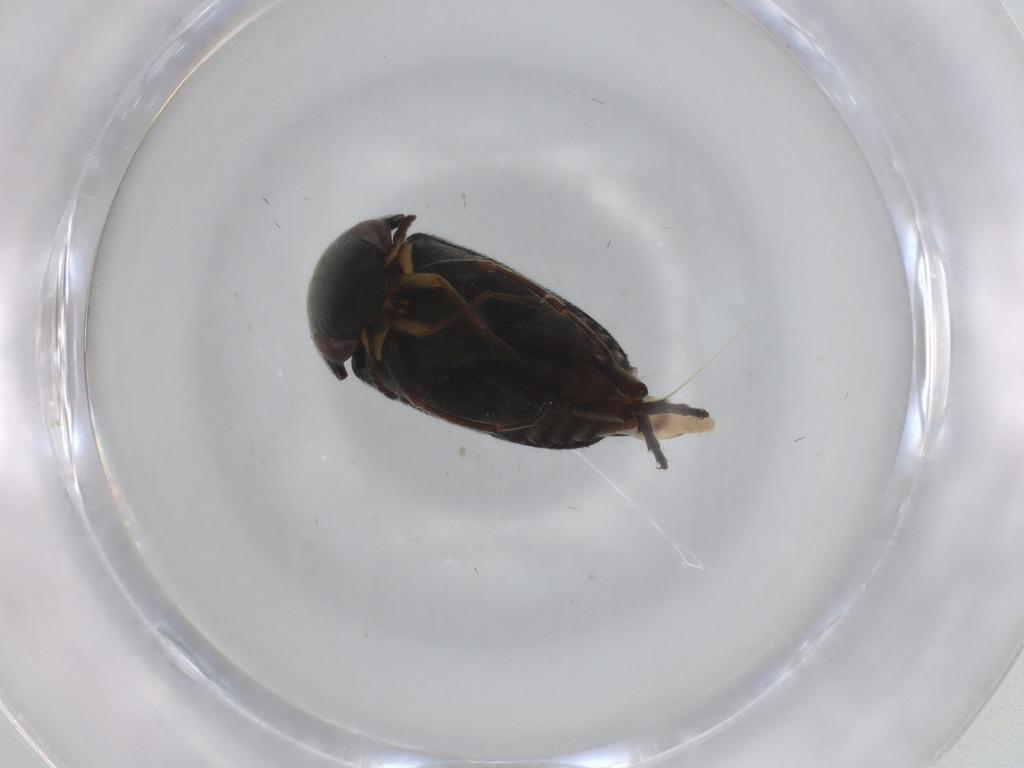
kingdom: Animalia
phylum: Arthropoda
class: Insecta
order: Coleoptera
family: Mordellidae
